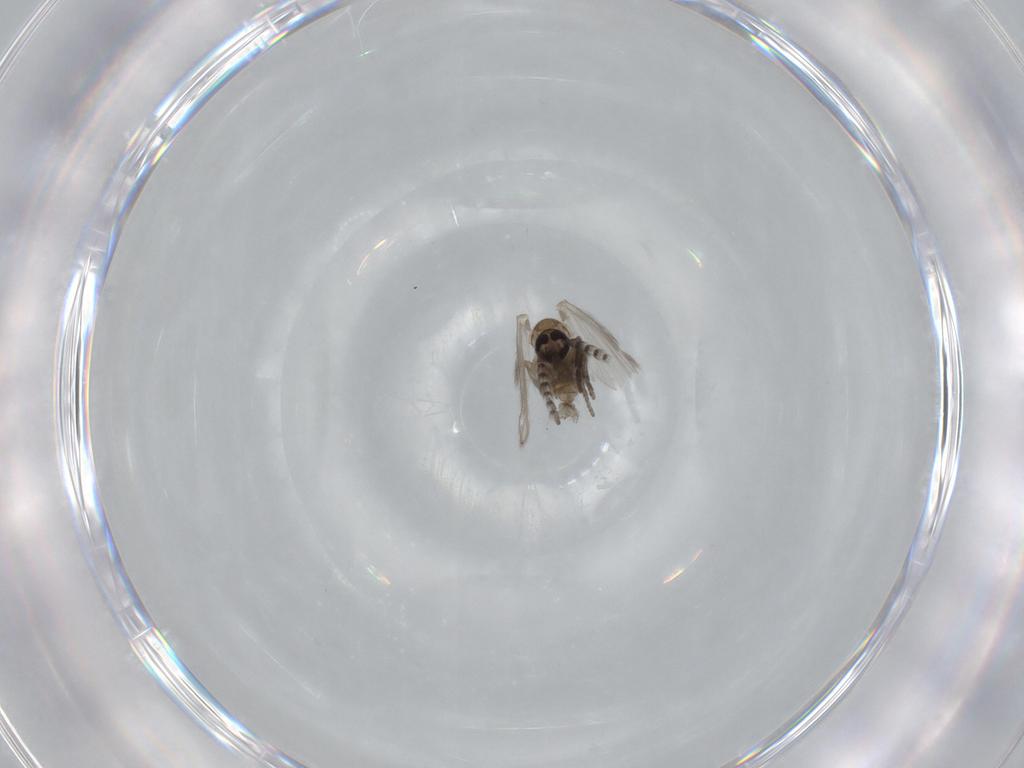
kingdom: Animalia
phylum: Arthropoda
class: Insecta
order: Diptera
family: Psychodidae
